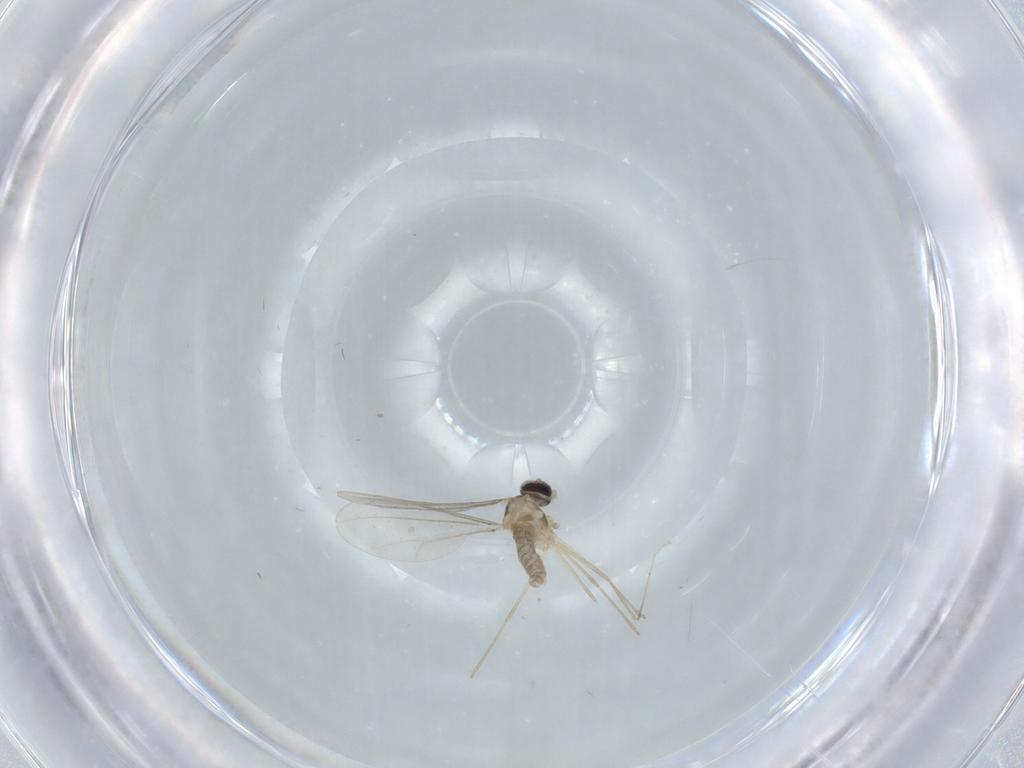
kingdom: Animalia
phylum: Arthropoda
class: Insecta
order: Diptera
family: Cecidomyiidae
